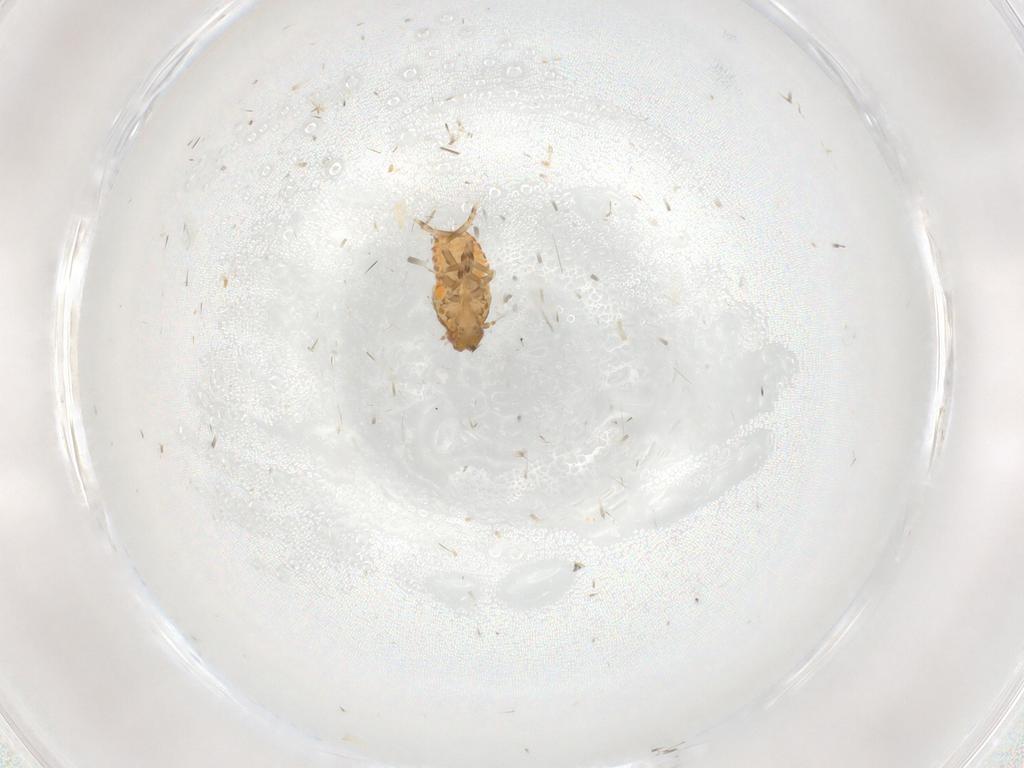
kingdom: Animalia
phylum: Arthropoda
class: Insecta
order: Hemiptera
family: Flatidae
